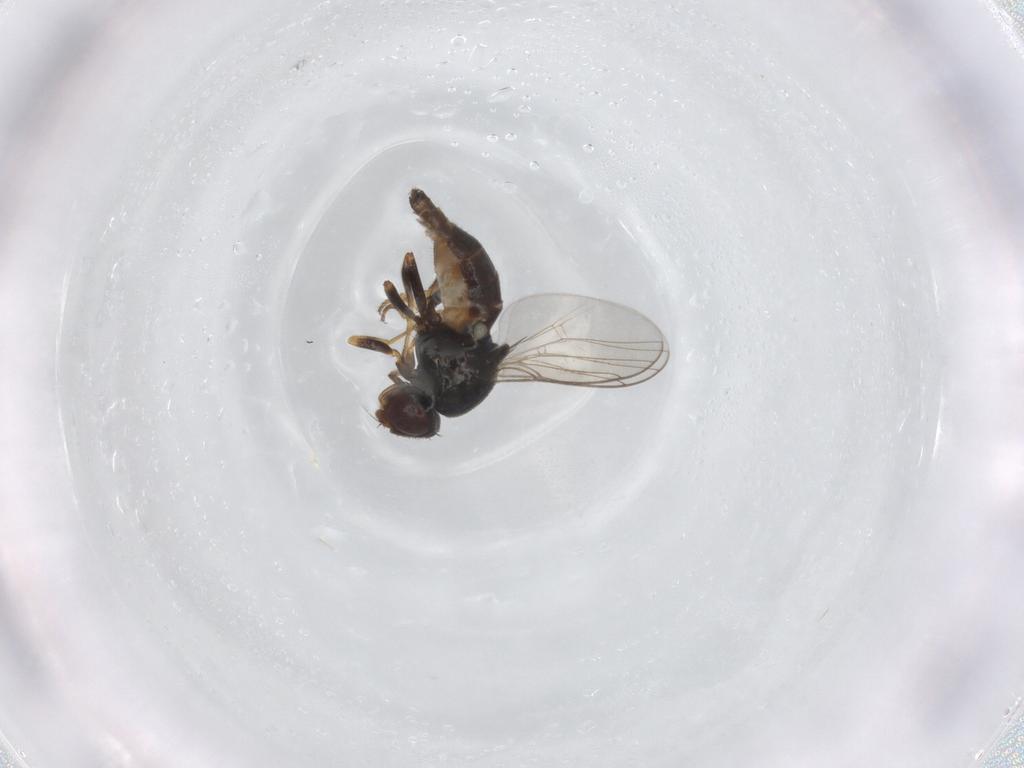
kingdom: Animalia
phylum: Arthropoda
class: Insecta
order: Diptera
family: Chloropidae
